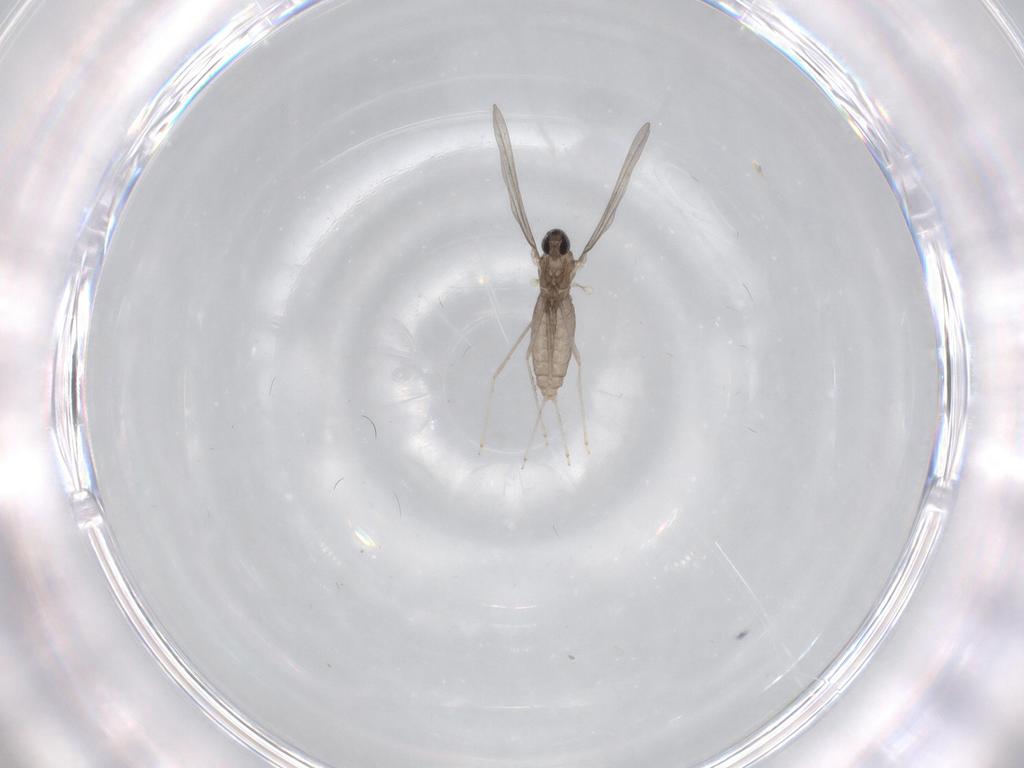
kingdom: Animalia
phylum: Arthropoda
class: Insecta
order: Diptera
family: Cecidomyiidae
